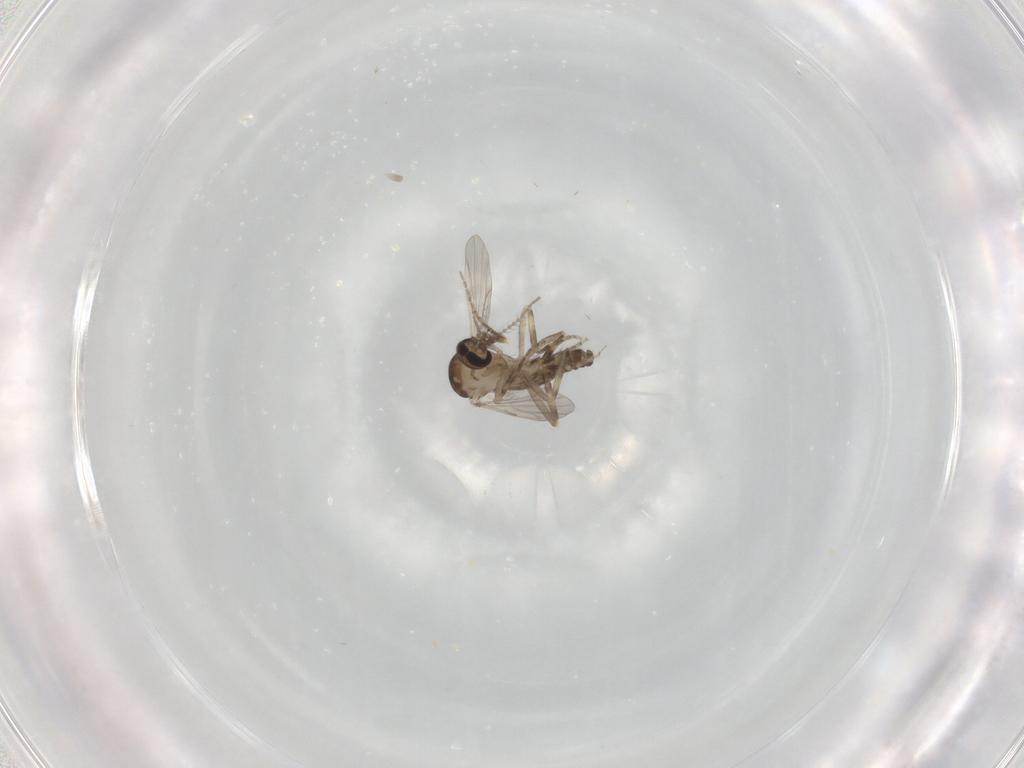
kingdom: Animalia
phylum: Arthropoda
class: Insecta
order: Diptera
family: Ceratopogonidae
